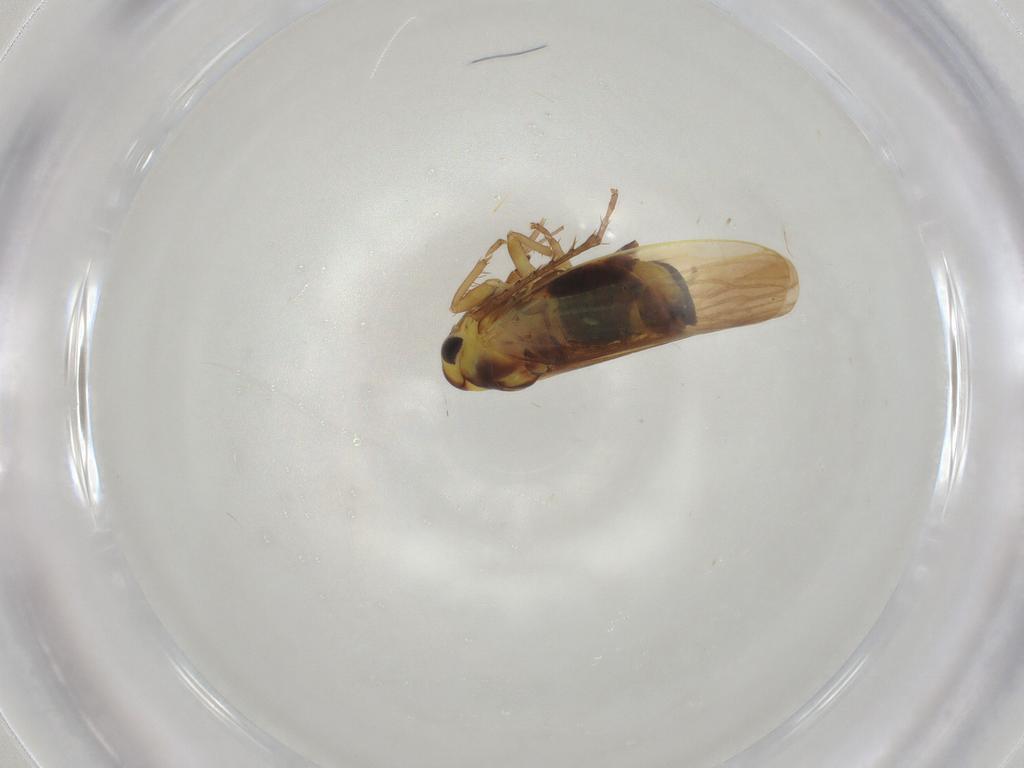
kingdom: Animalia
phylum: Arthropoda
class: Insecta
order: Hemiptera
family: Cicadellidae
